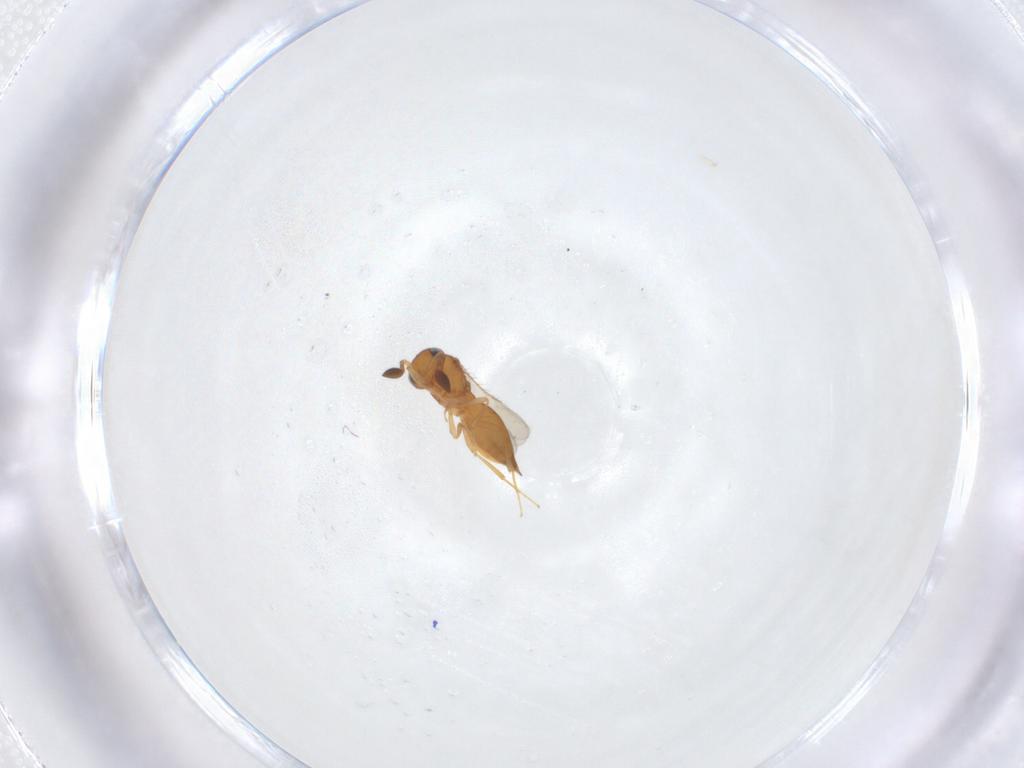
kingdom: Animalia
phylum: Arthropoda
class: Insecta
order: Hymenoptera
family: Scelionidae
